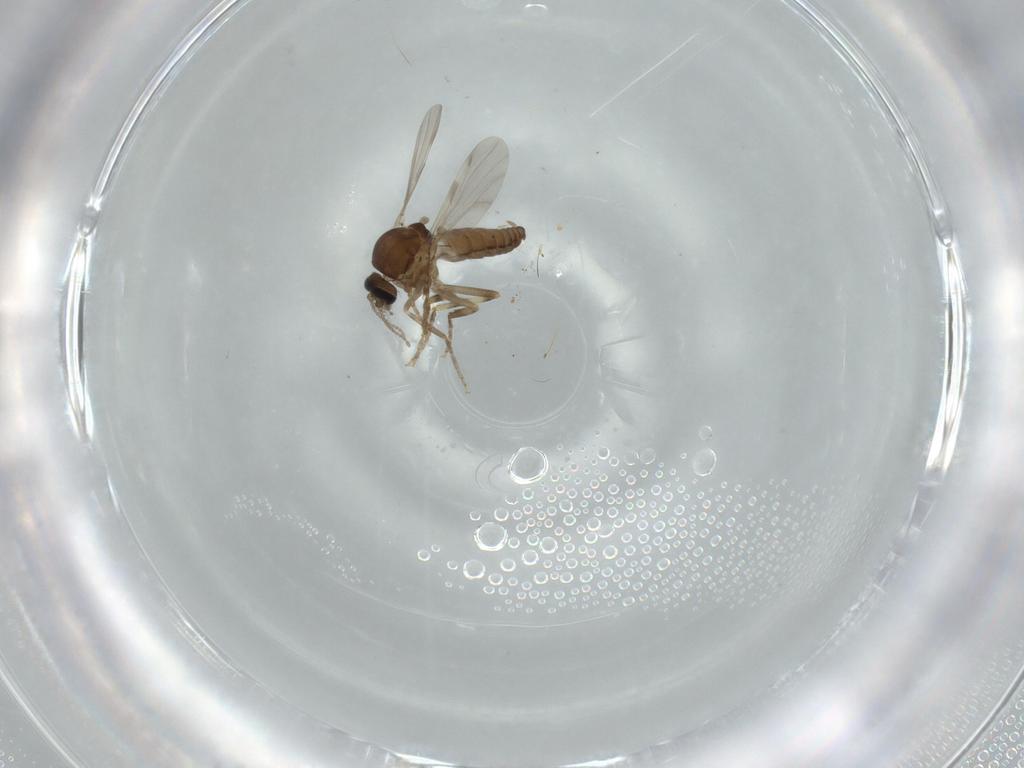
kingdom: Animalia
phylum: Arthropoda
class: Insecta
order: Diptera
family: Ceratopogonidae
